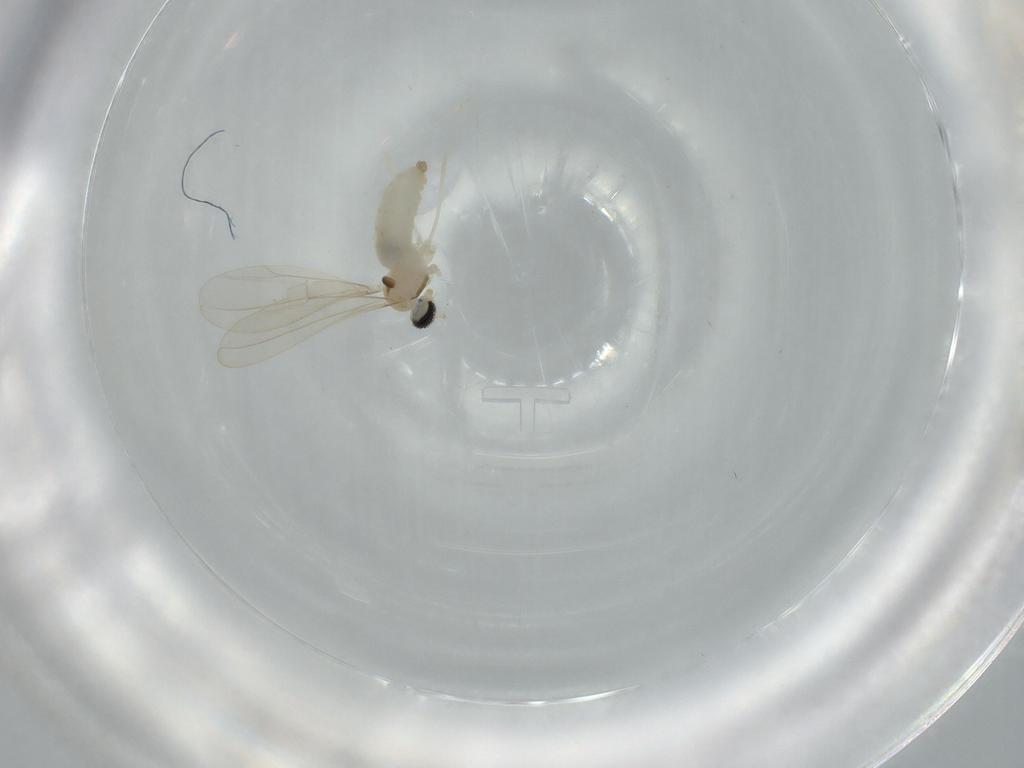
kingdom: Animalia
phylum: Arthropoda
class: Insecta
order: Diptera
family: Cecidomyiidae
